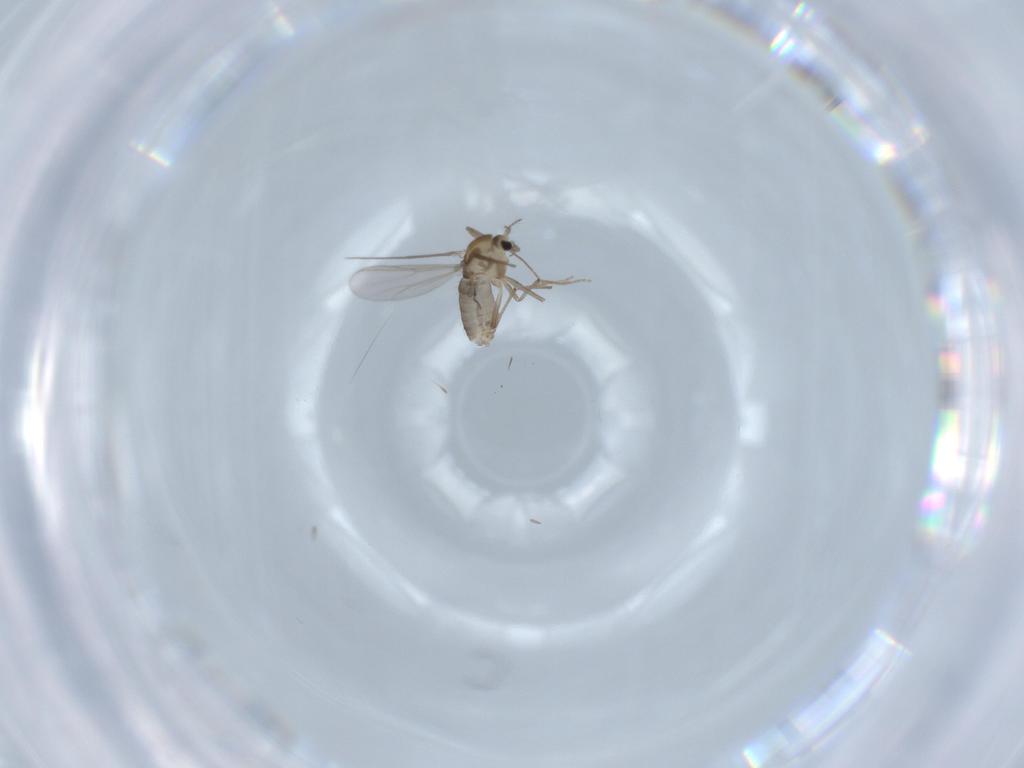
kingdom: Animalia
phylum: Arthropoda
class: Insecta
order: Diptera
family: Chironomidae
